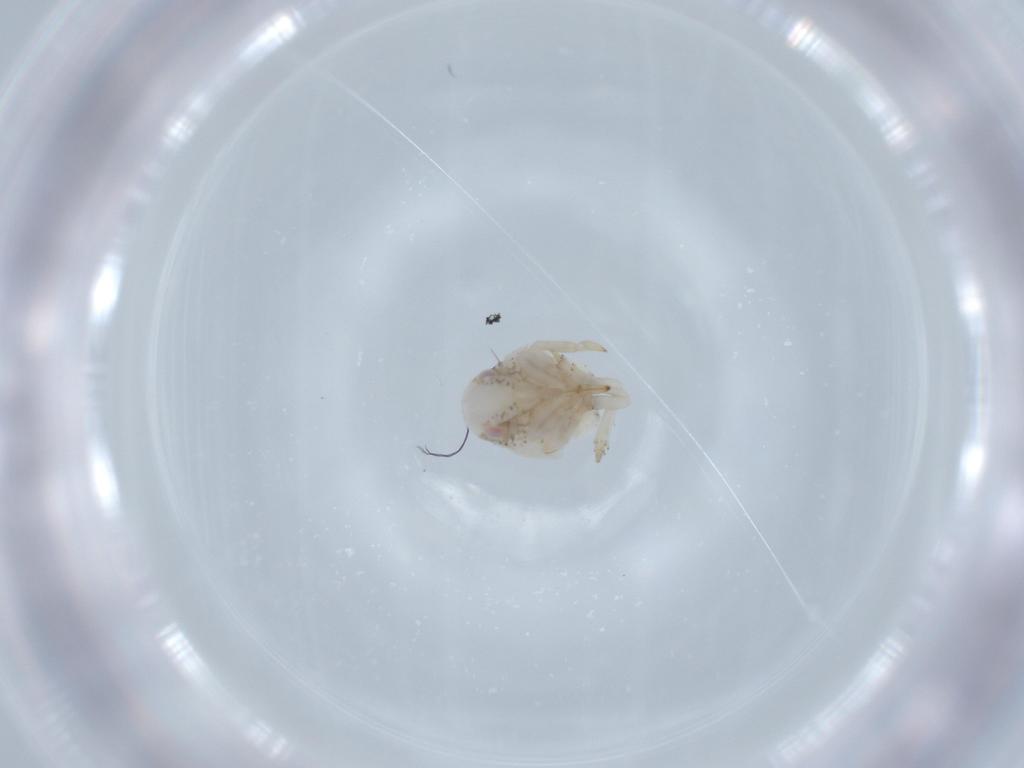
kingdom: Animalia
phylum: Arthropoda
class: Insecta
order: Hemiptera
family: Acanaloniidae
